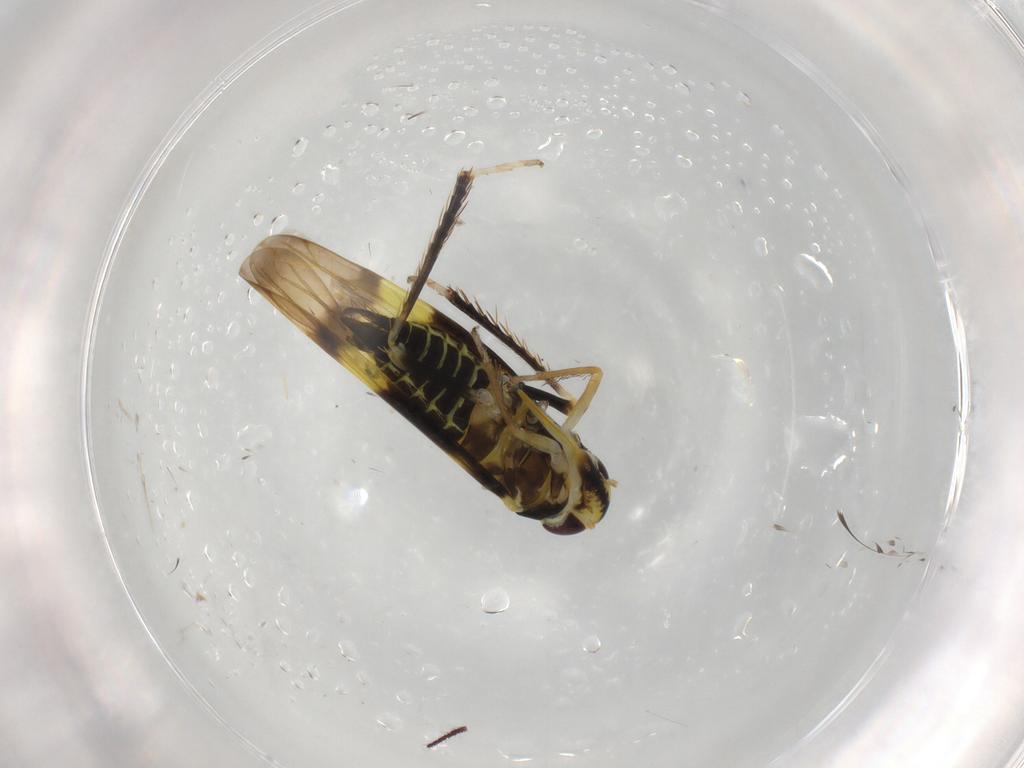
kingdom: Animalia
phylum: Arthropoda
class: Insecta
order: Hemiptera
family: Cicadellidae
